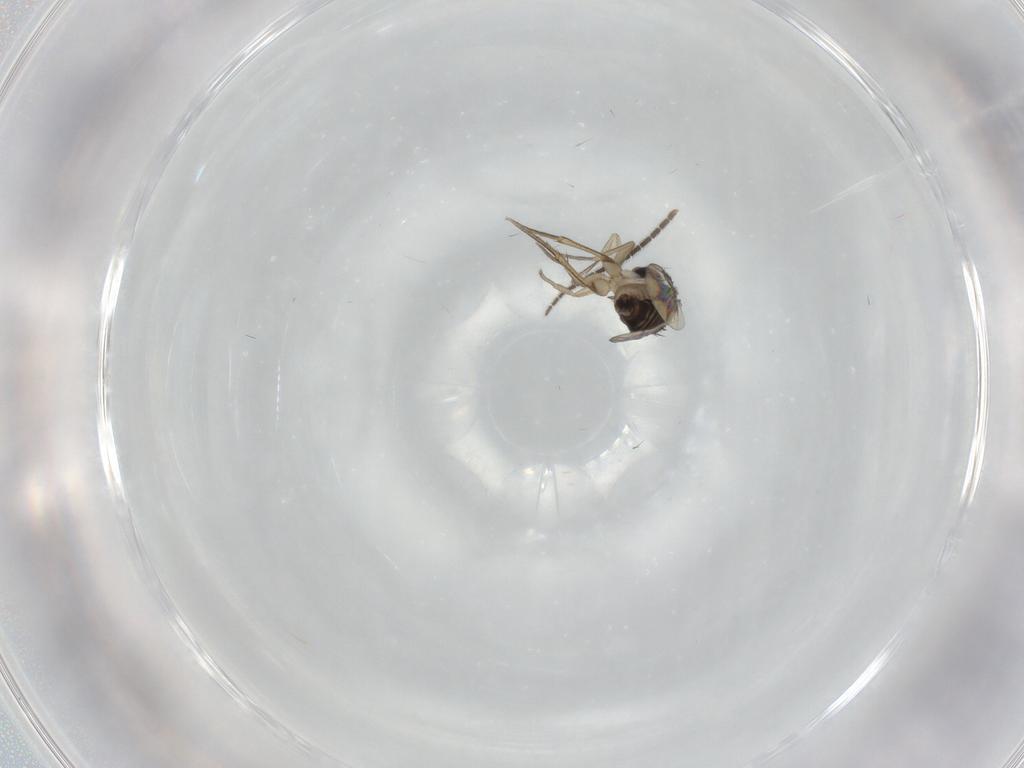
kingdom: Animalia
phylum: Arthropoda
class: Insecta
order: Diptera
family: Sciaridae
